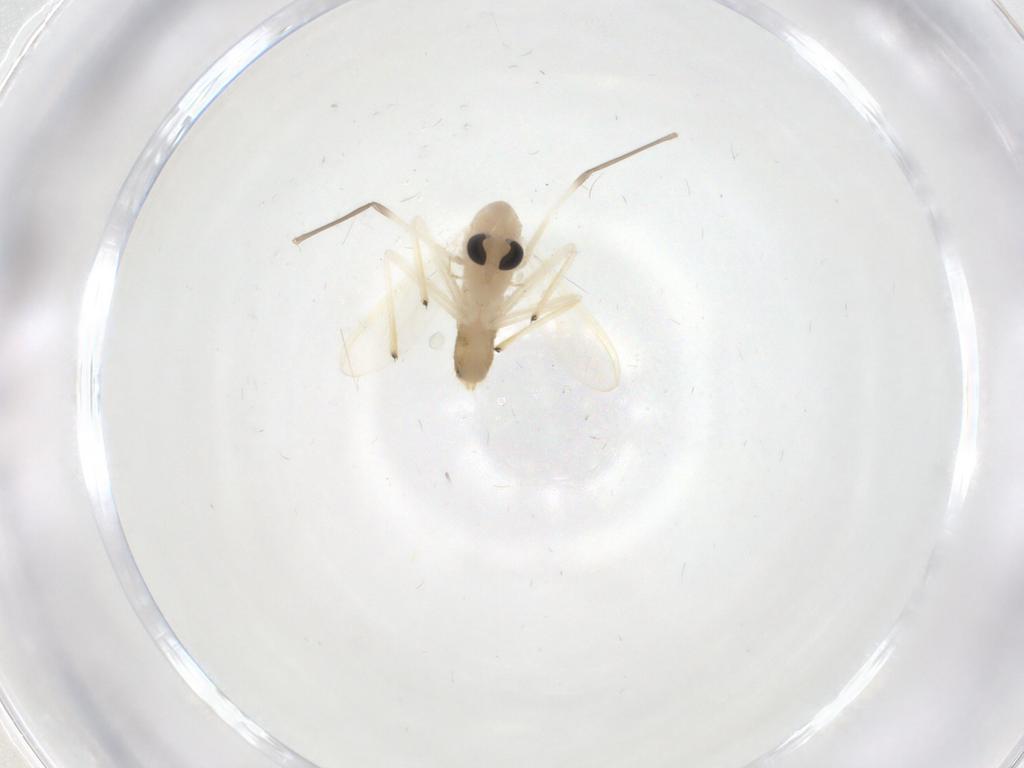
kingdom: Animalia
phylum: Arthropoda
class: Insecta
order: Diptera
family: Chironomidae
